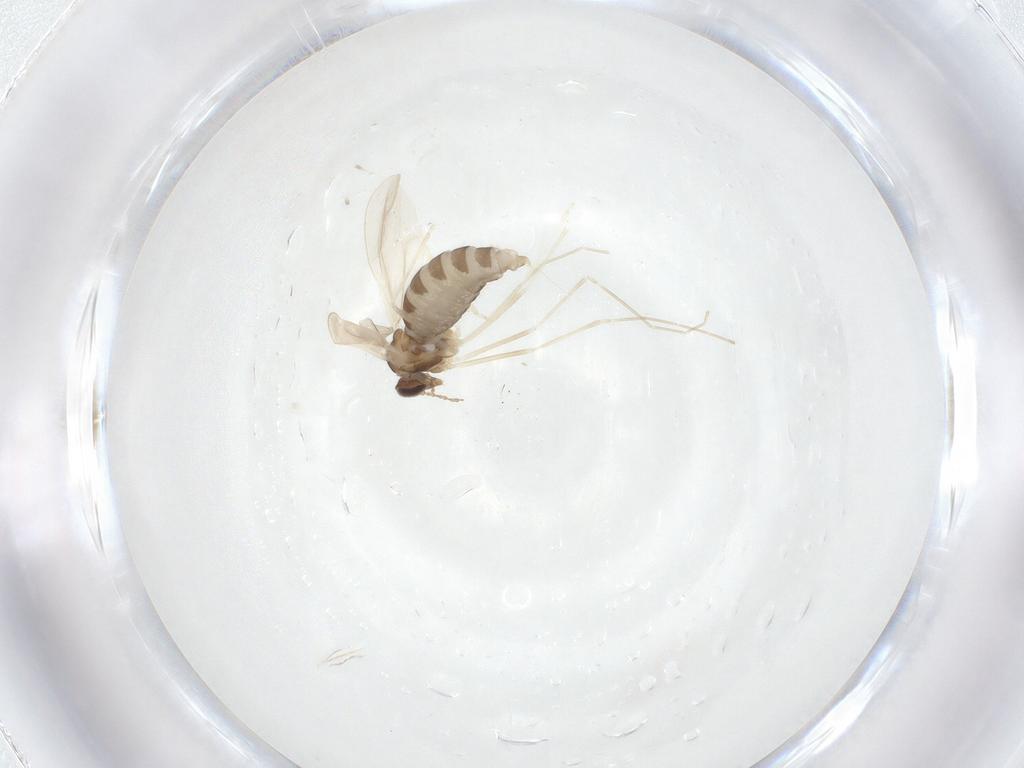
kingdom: Animalia
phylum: Arthropoda
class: Insecta
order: Diptera
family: Cecidomyiidae
